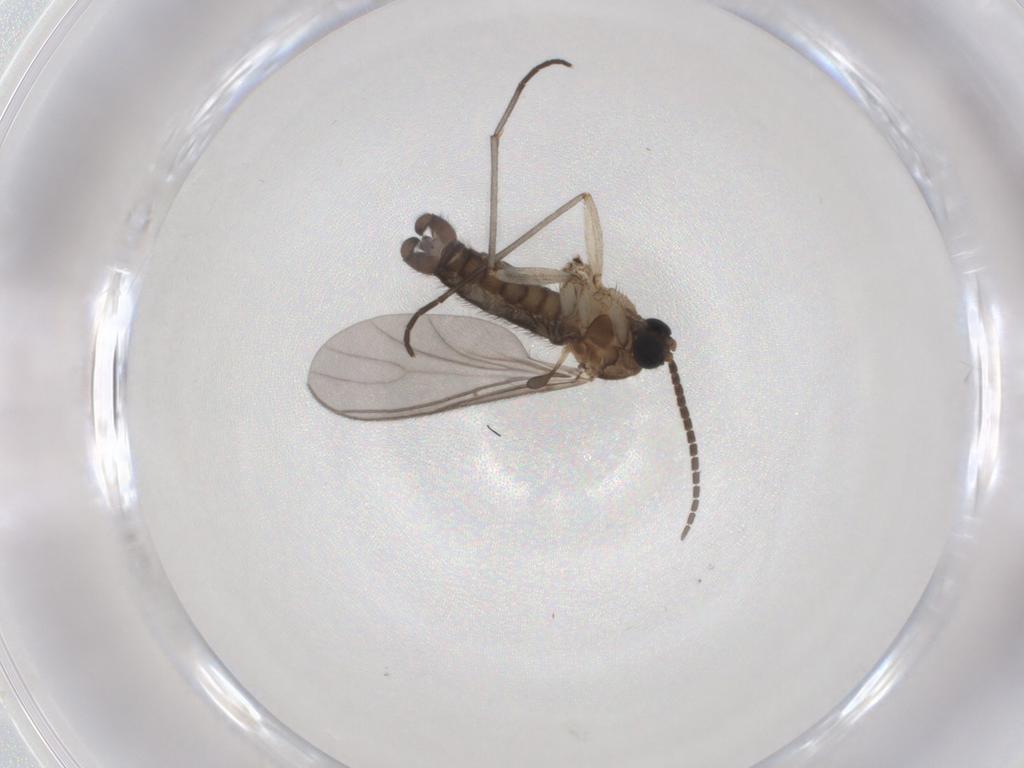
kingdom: Animalia
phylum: Arthropoda
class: Insecta
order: Diptera
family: Sciaridae
